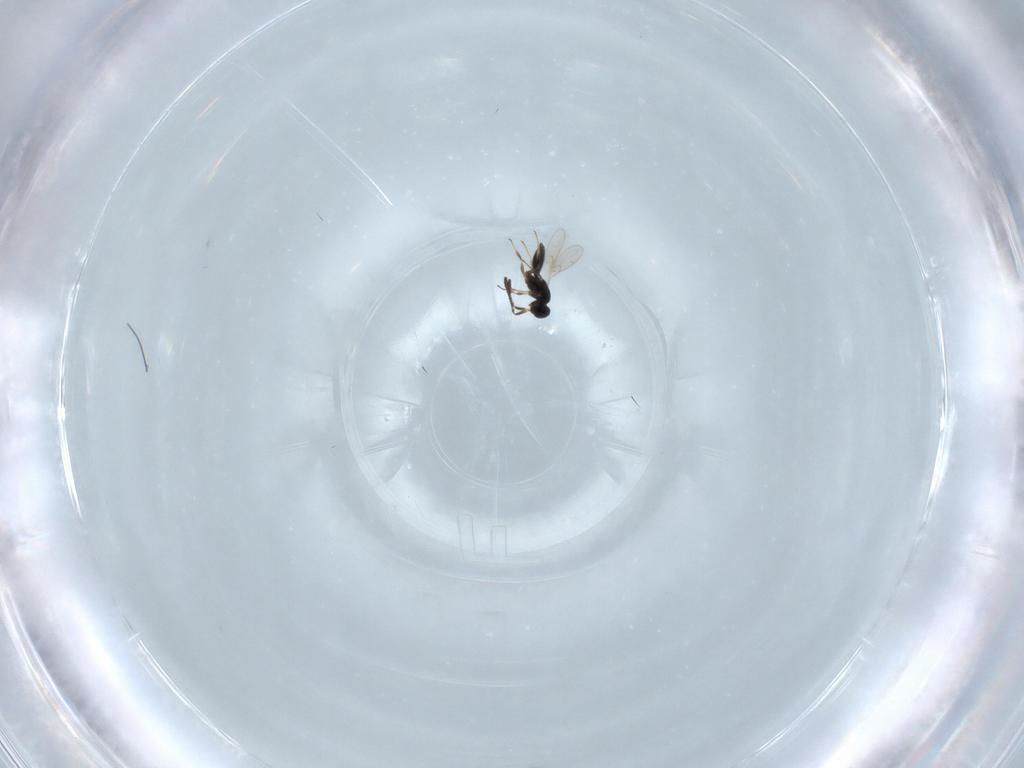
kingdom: Animalia
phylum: Arthropoda
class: Insecta
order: Hymenoptera
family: Scelionidae
